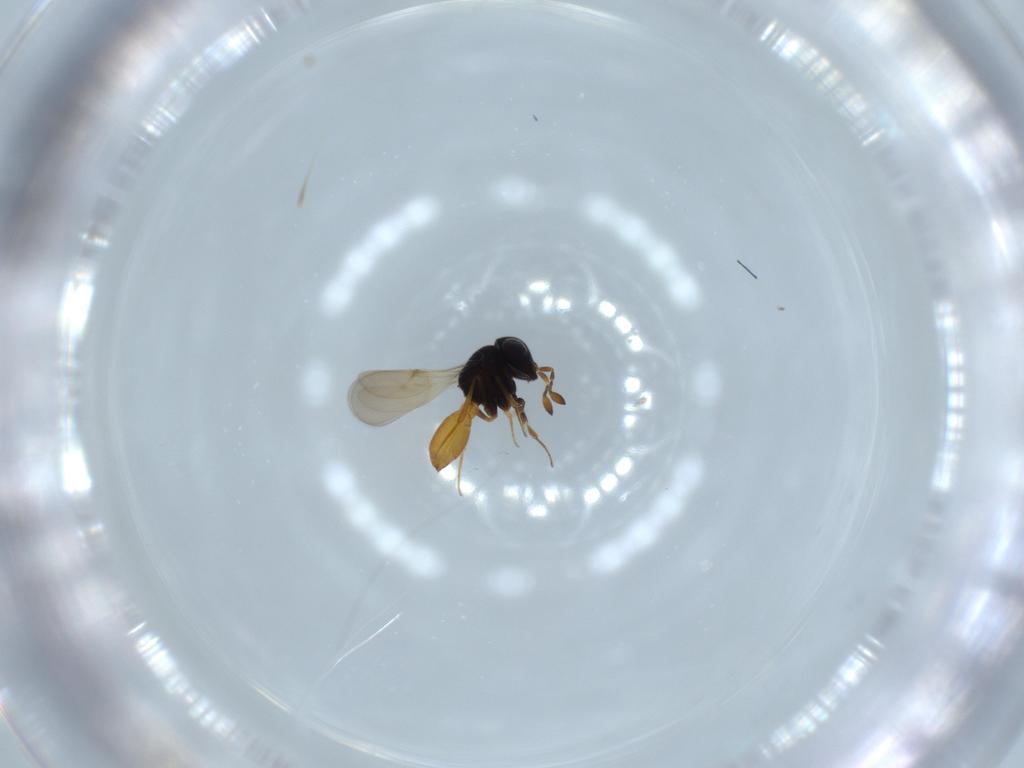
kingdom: Animalia
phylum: Arthropoda
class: Insecta
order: Hymenoptera
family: Scelionidae
